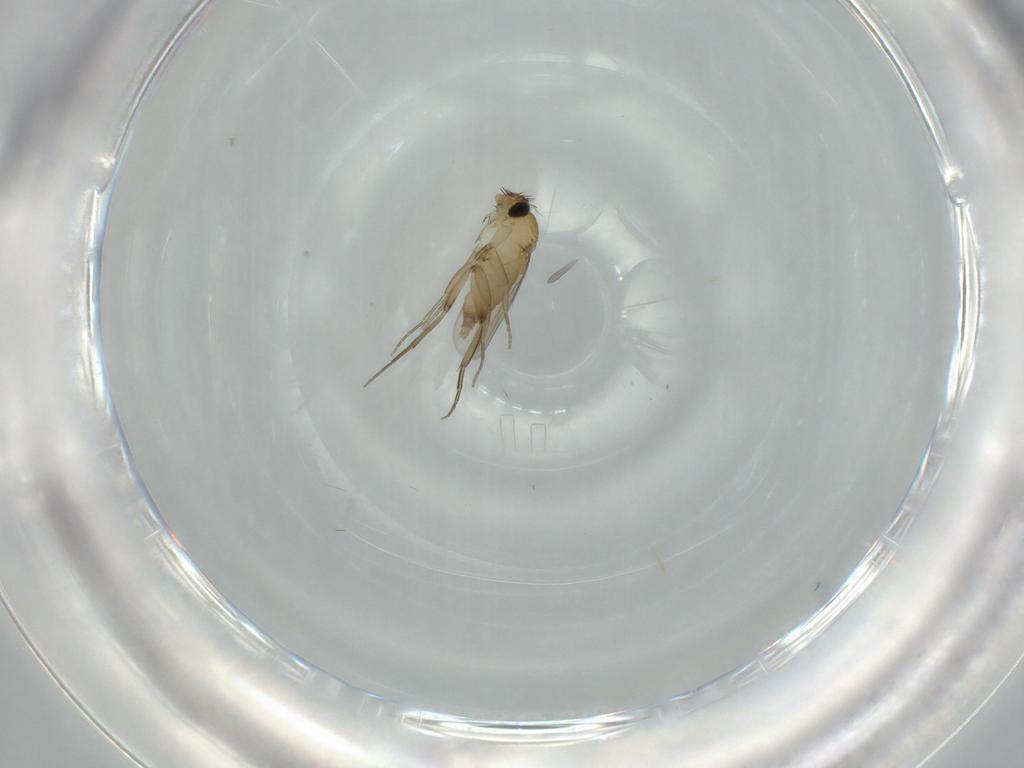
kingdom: Animalia
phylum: Arthropoda
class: Insecta
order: Diptera
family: Phoridae
